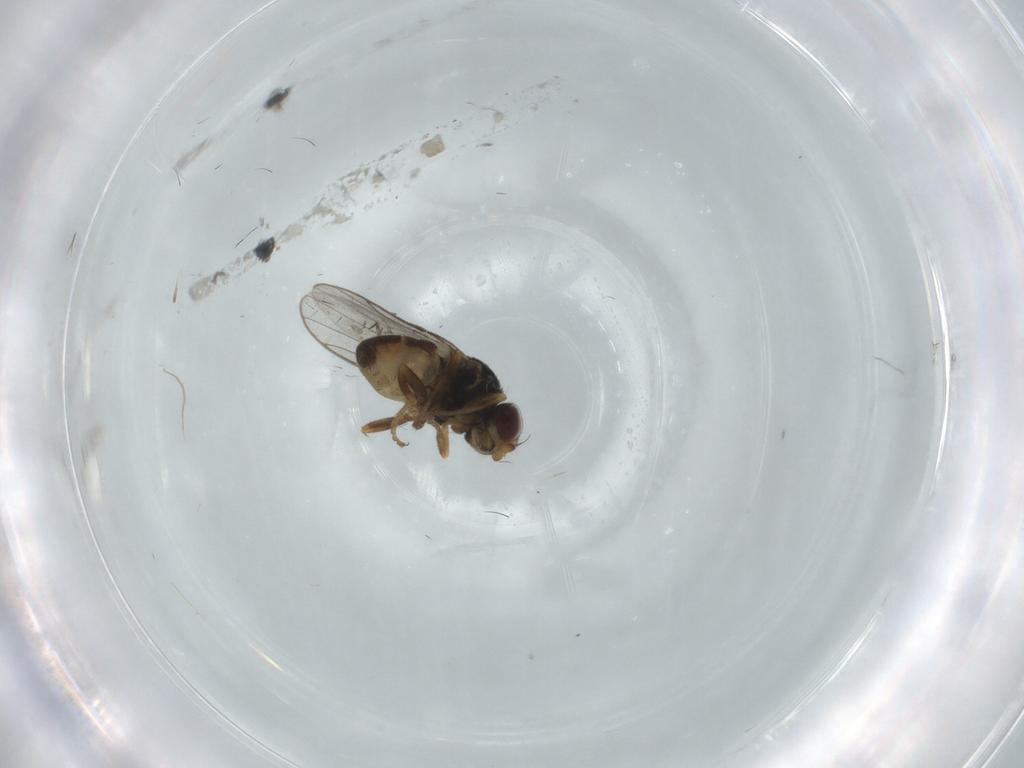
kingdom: Animalia
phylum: Arthropoda
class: Insecta
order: Diptera
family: Chloropidae
